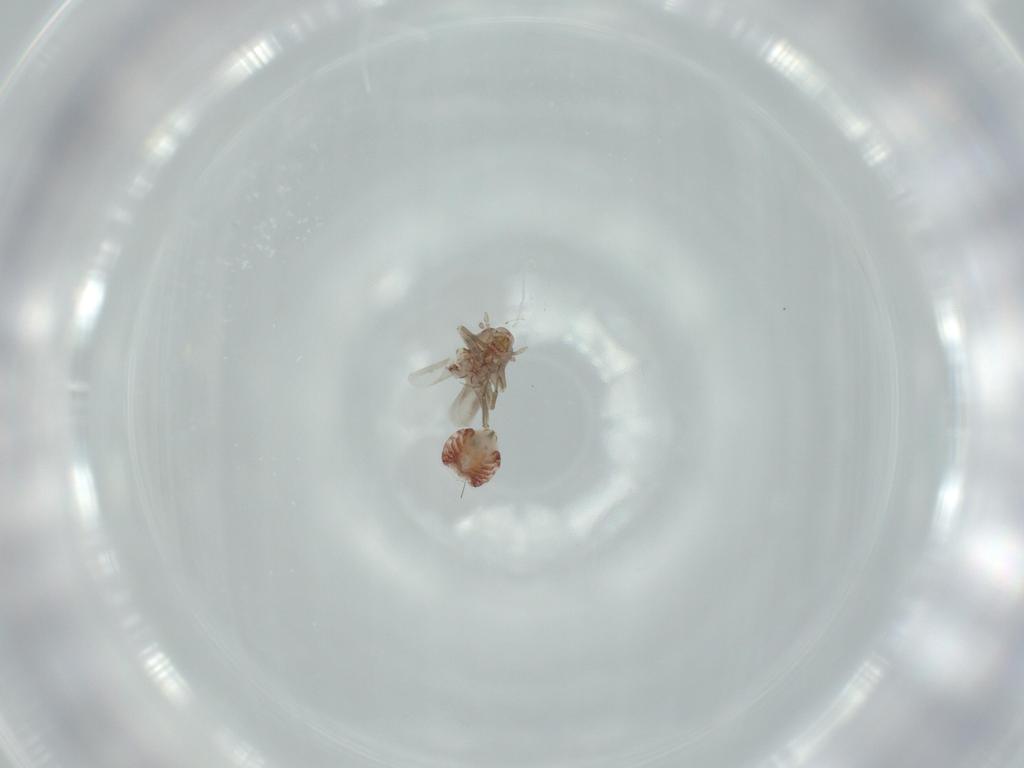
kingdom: Animalia
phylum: Arthropoda
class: Insecta
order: Psocodea
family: Lepidopsocidae
